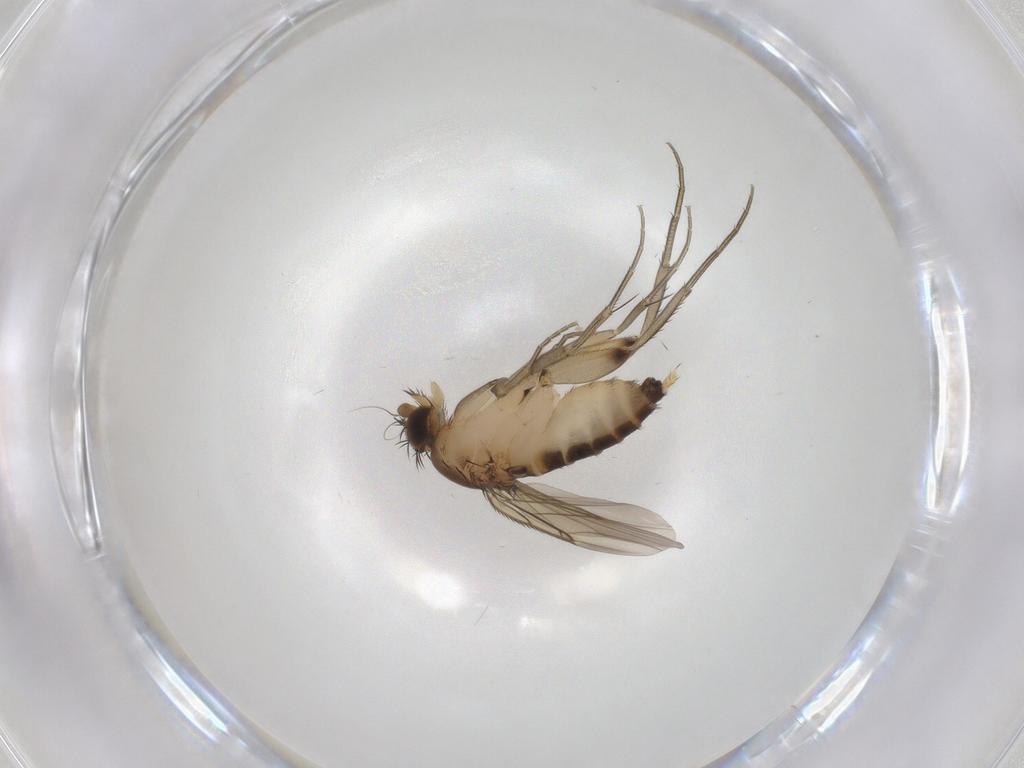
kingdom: Animalia
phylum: Arthropoda
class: Insecta
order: Diptera
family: Phoridae
